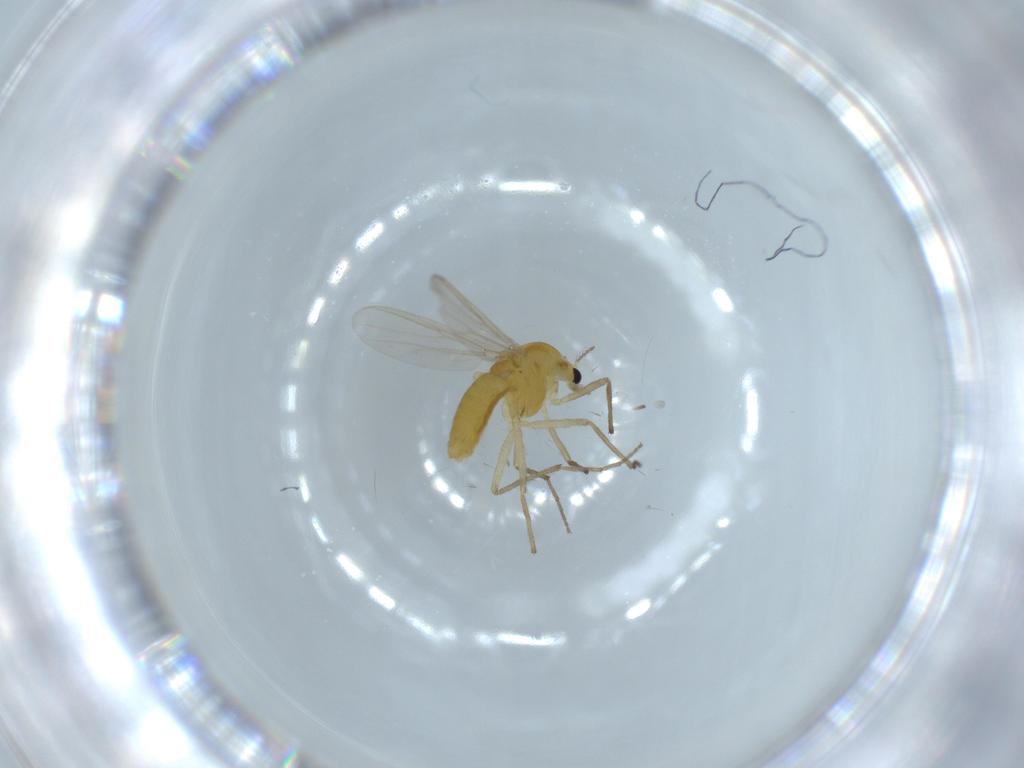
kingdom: Animalia
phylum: Arthropoda
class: Insecta
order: Diptera
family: Chironomidae
